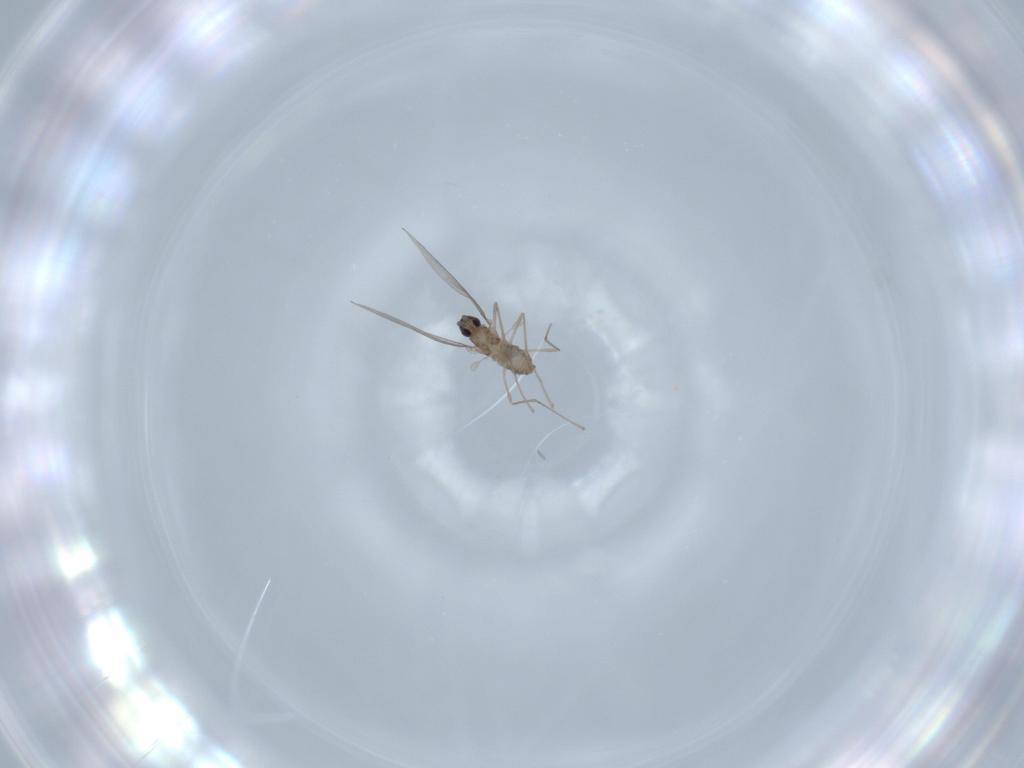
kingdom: Animalia
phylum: Arthropoda
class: Insecta
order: Diptera
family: Cecidomyiidae
